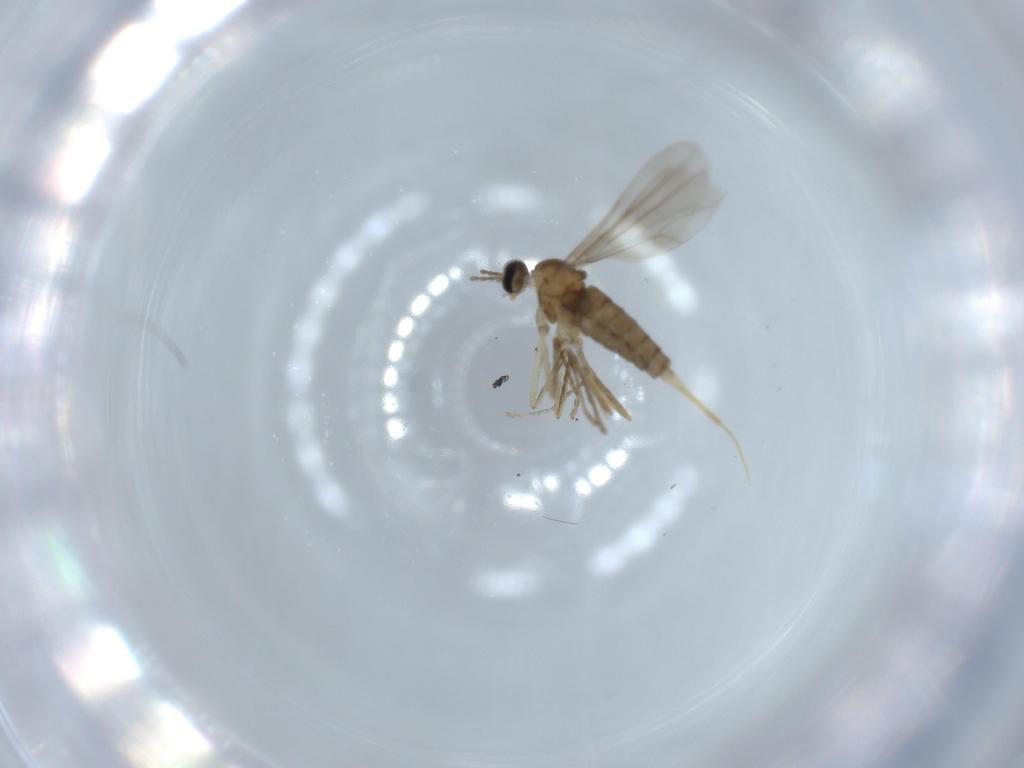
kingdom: Animalia
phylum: Arthropoda
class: Insecta
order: Diptera
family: Cecidomyiidae
